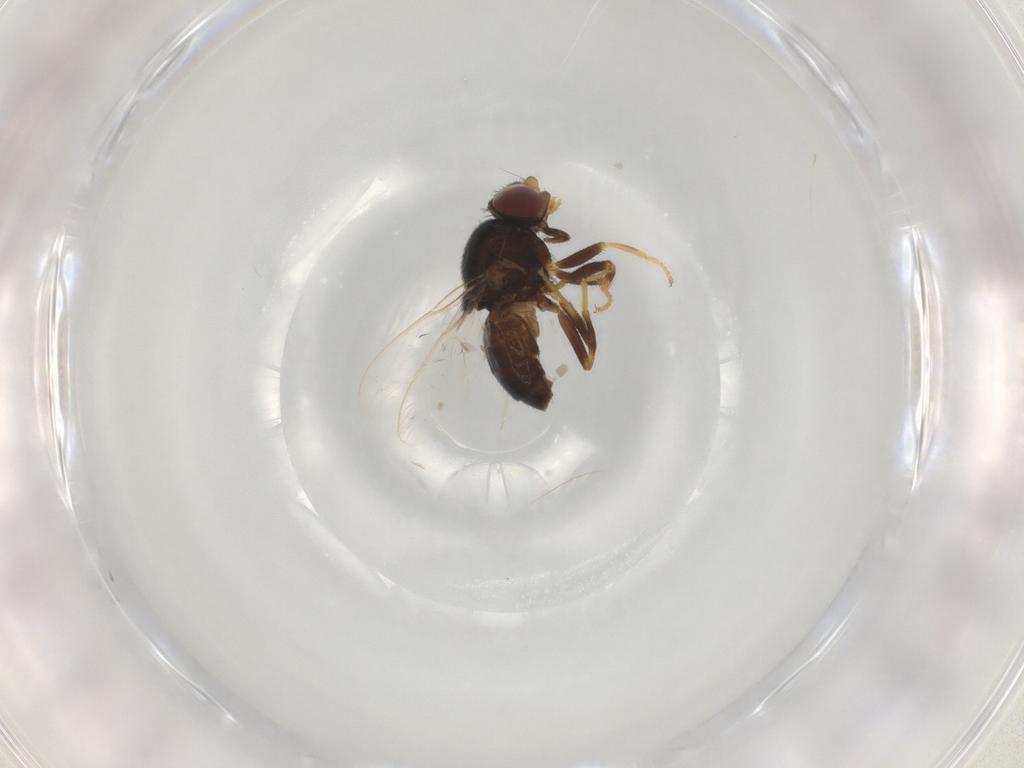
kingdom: Animalia
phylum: Arthropoda
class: Insecta
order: Diptera
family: Chloropidae
